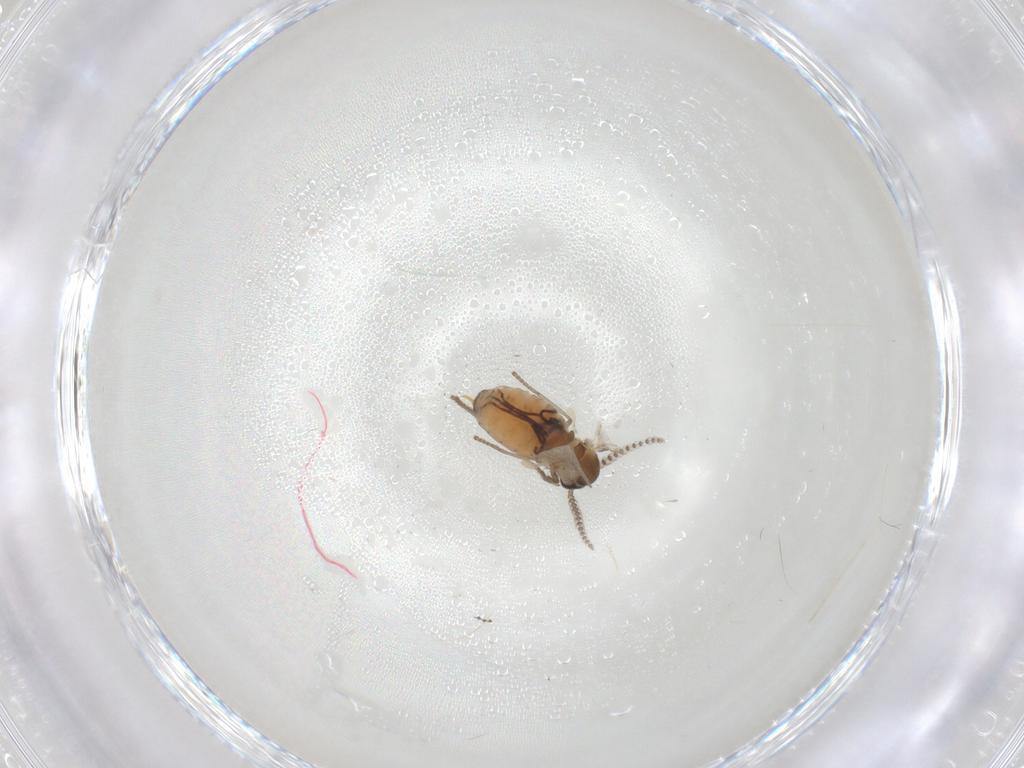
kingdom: Animalia
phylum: Arthropoda
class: Insecta
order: Diptera
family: Psychodidae
